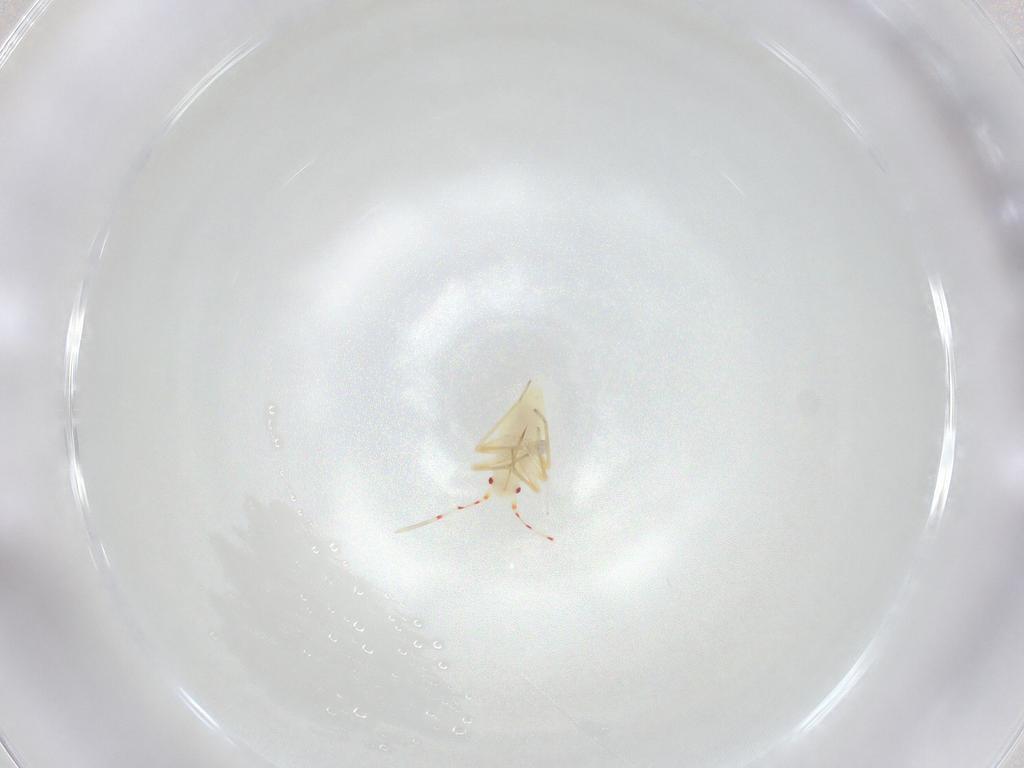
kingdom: Animalia
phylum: Arthropoda
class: Insecta
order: Hemiptera
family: Miridae
